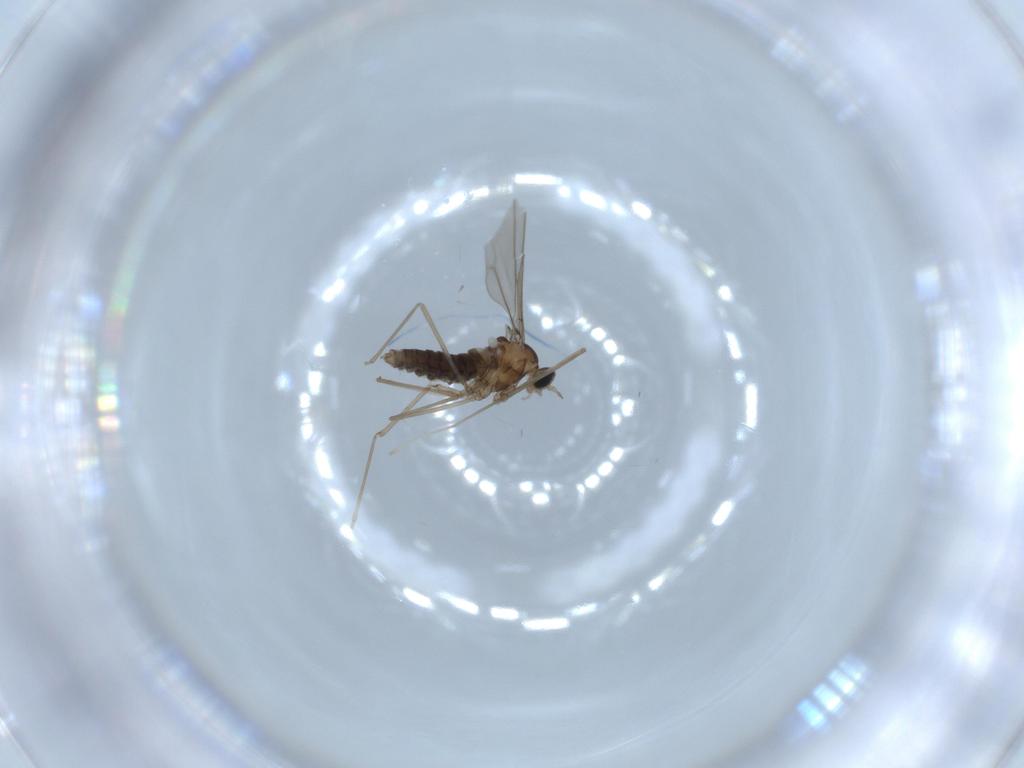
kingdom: Animalia
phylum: Arthropoda
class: Insecta
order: Diptera
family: Cecidomyiidae
